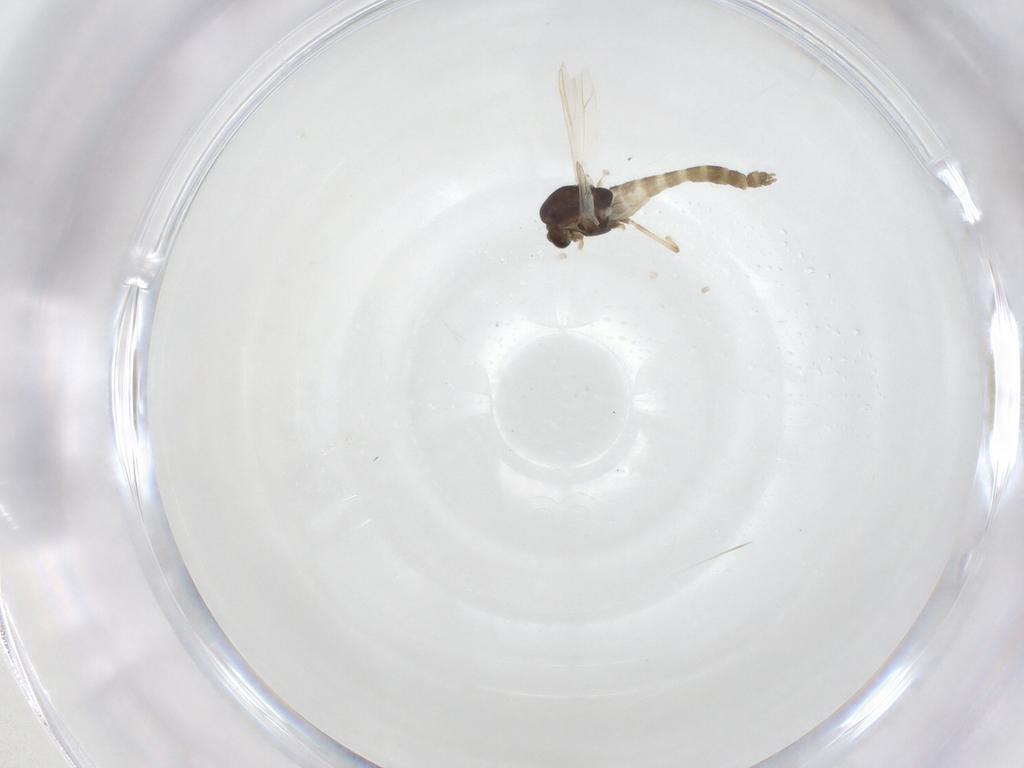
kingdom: Animalia
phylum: Arthropoda
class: Insecta
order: Diptera
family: Chironomidae
